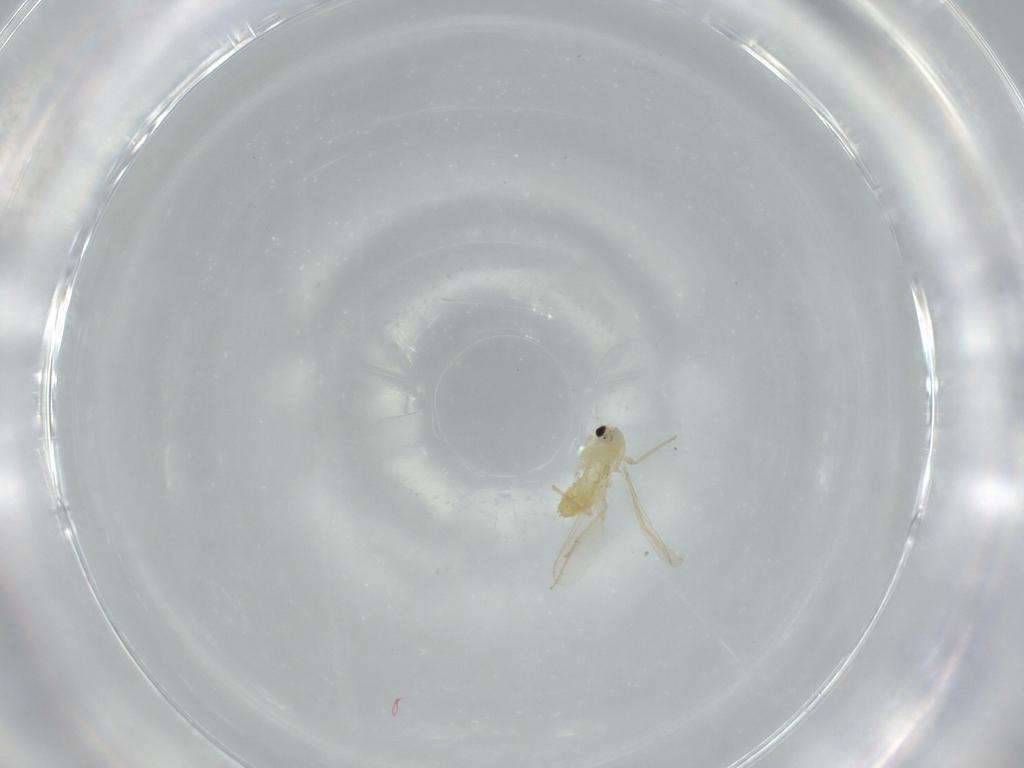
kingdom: Animalia
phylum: Arthropoda
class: Insecta
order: Diptera
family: Chironomidae
